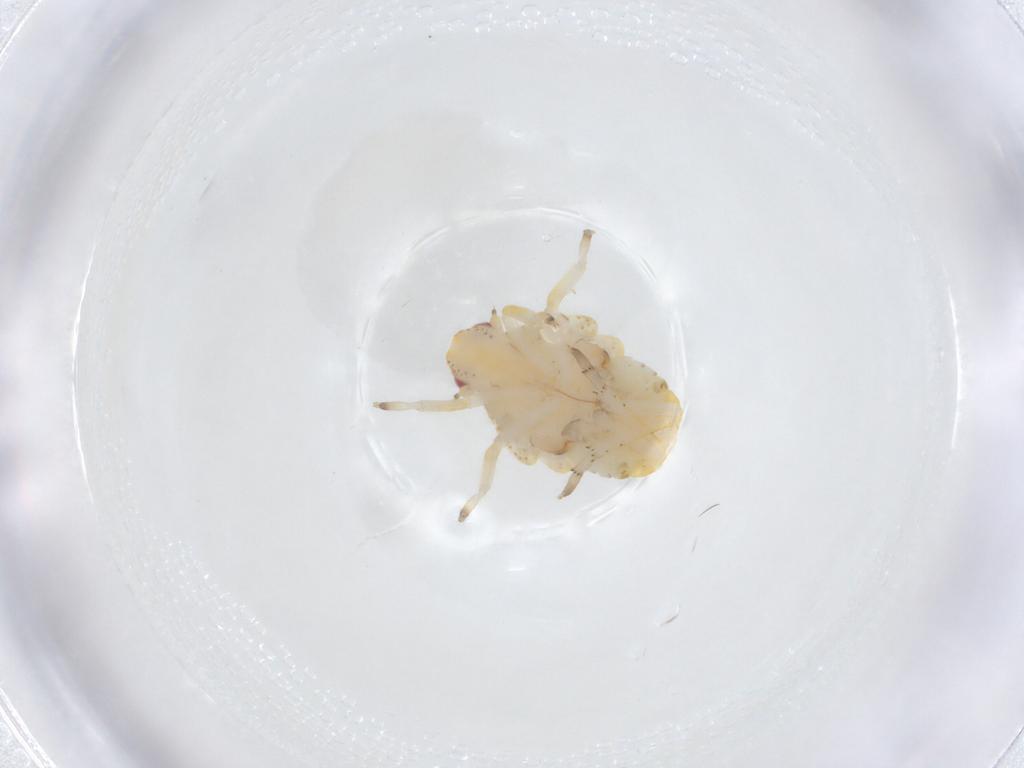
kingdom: Animalia
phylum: Arthropoda
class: Insecta
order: Hemiptera
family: Fulgoroidea_incertae_sedis
